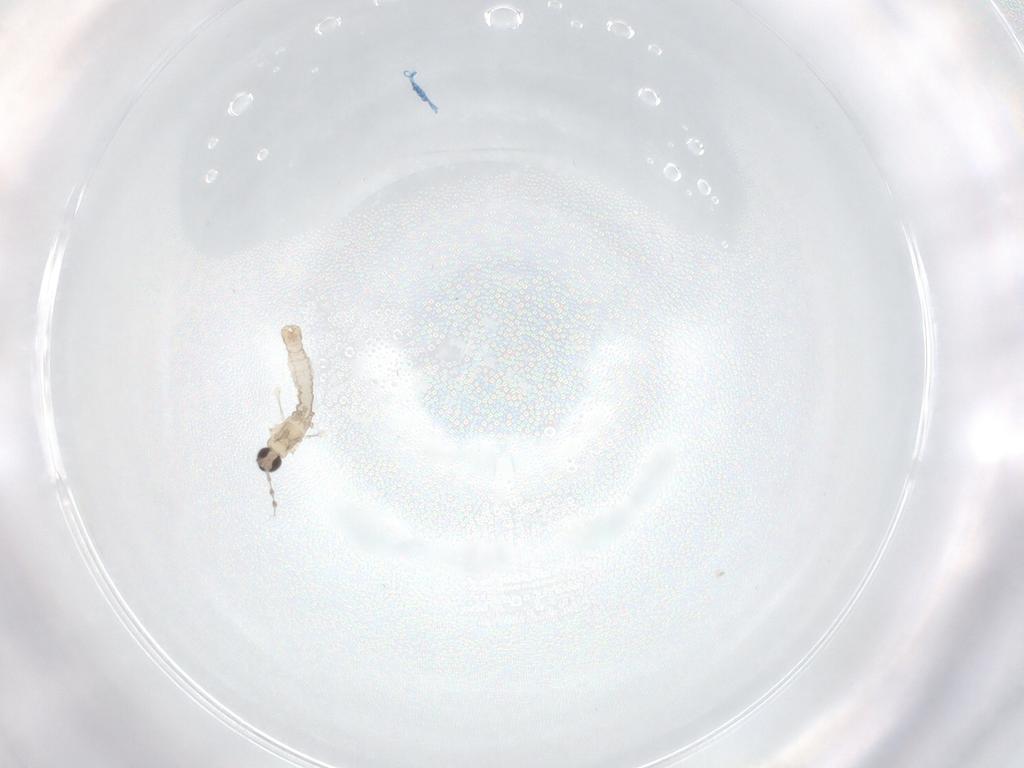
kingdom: Animalia
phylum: Arthropoda
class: Insecta
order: Diptera
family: Cecidomyiidae
